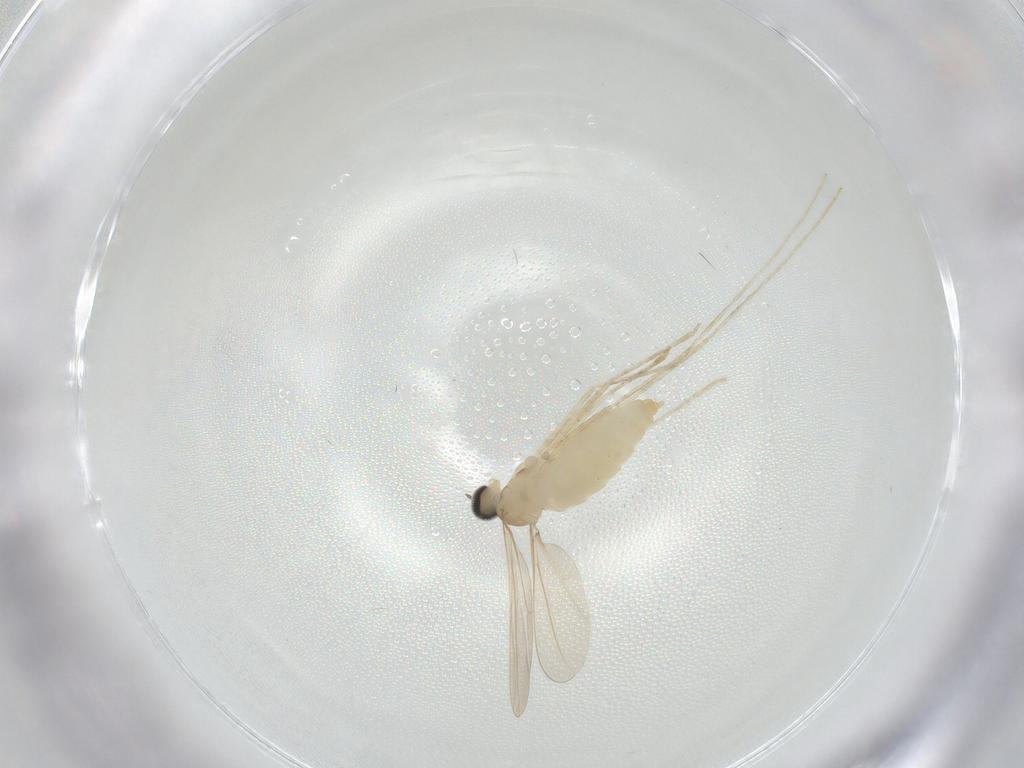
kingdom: Animalia
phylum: Arthropoda
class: Insecta
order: Diptera
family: Cecidomyiidae
